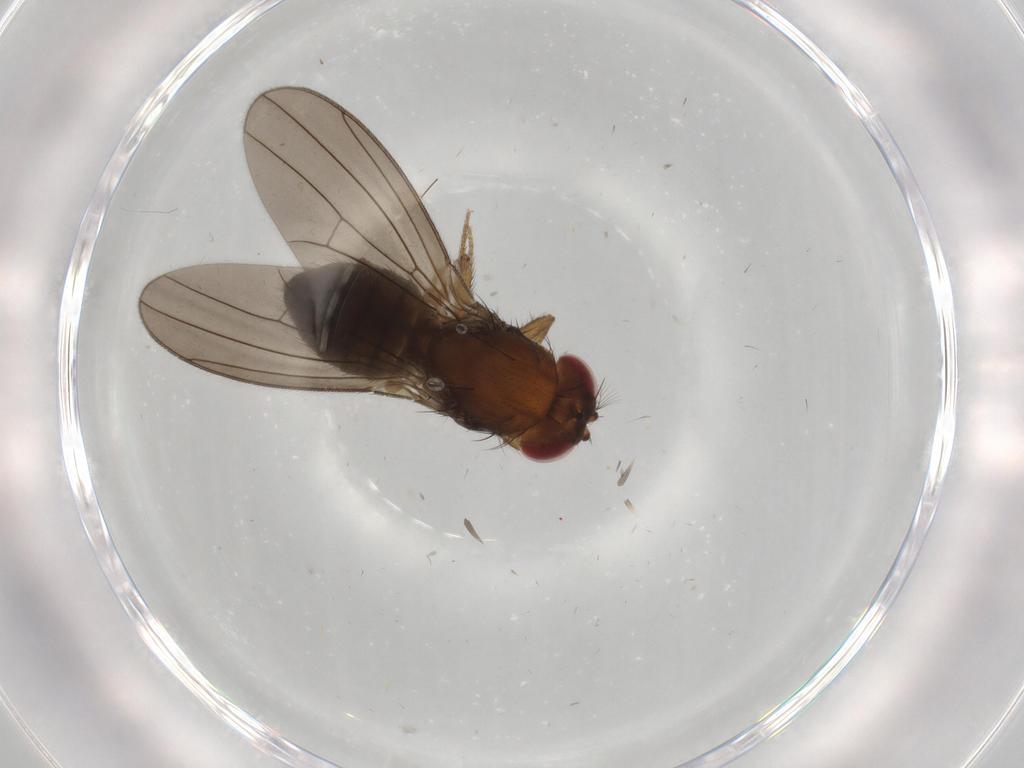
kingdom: Animalia
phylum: Arthropoda
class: Insecta
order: Diptera
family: Drosophilidae
